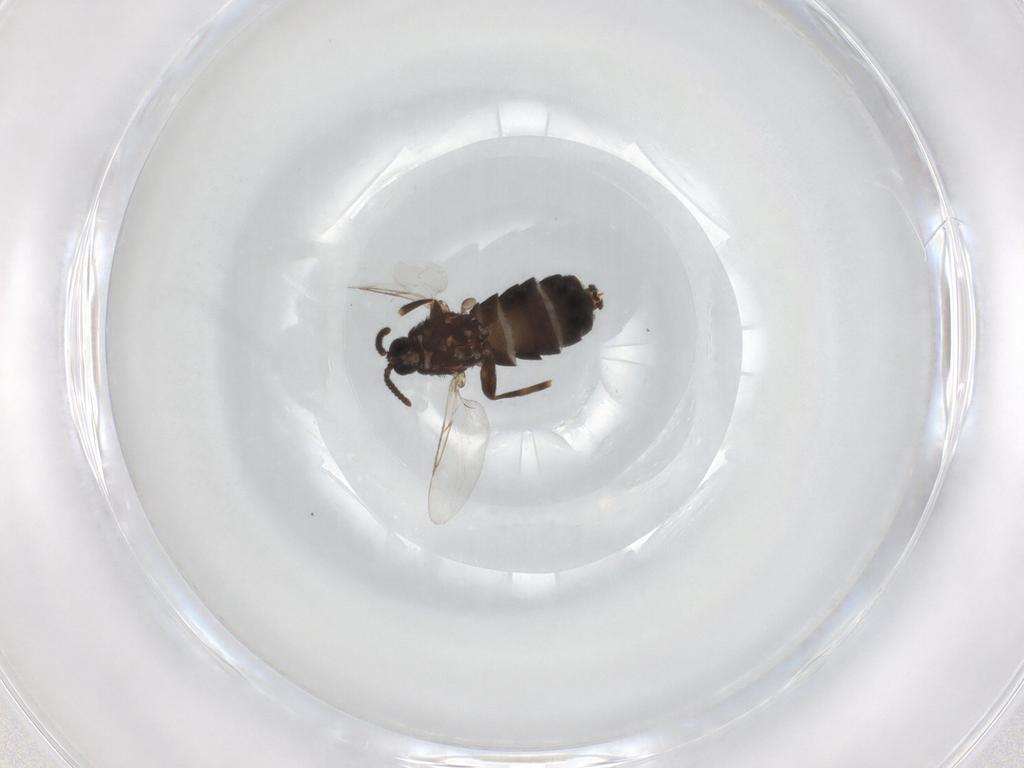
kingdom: Animalia
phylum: Arthropoda
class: Insecta
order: Diptera
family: Scatopsidae
